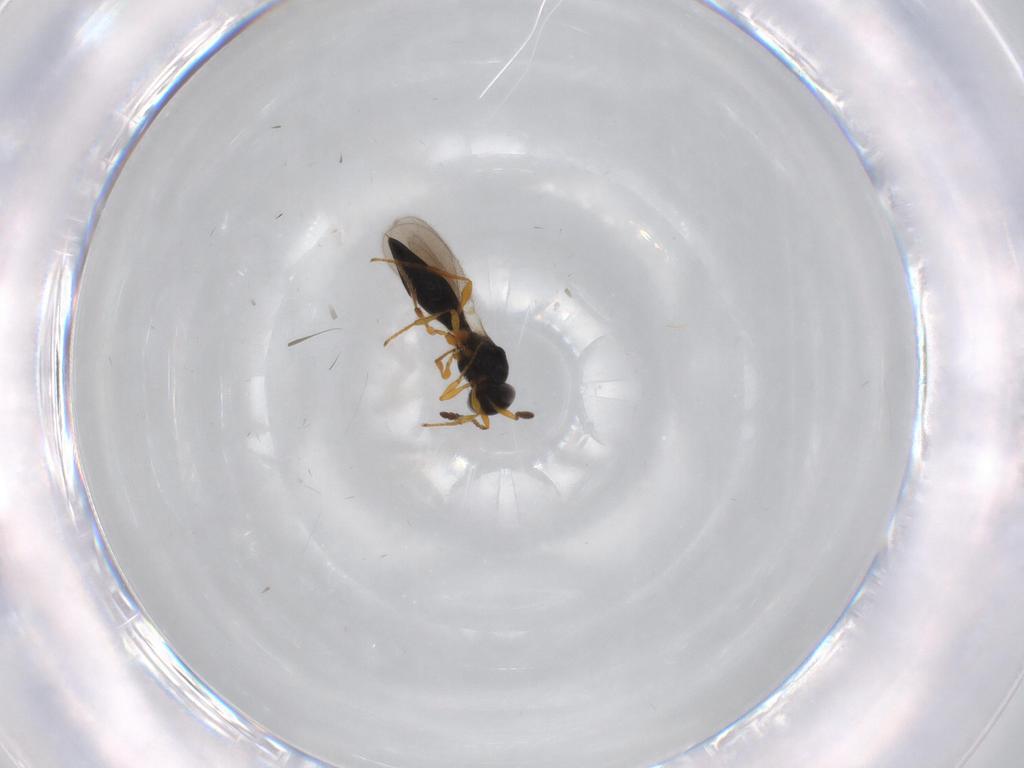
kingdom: Animalia
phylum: Arthropoda
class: Insecta
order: Hymenoptera
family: Platygastridae
